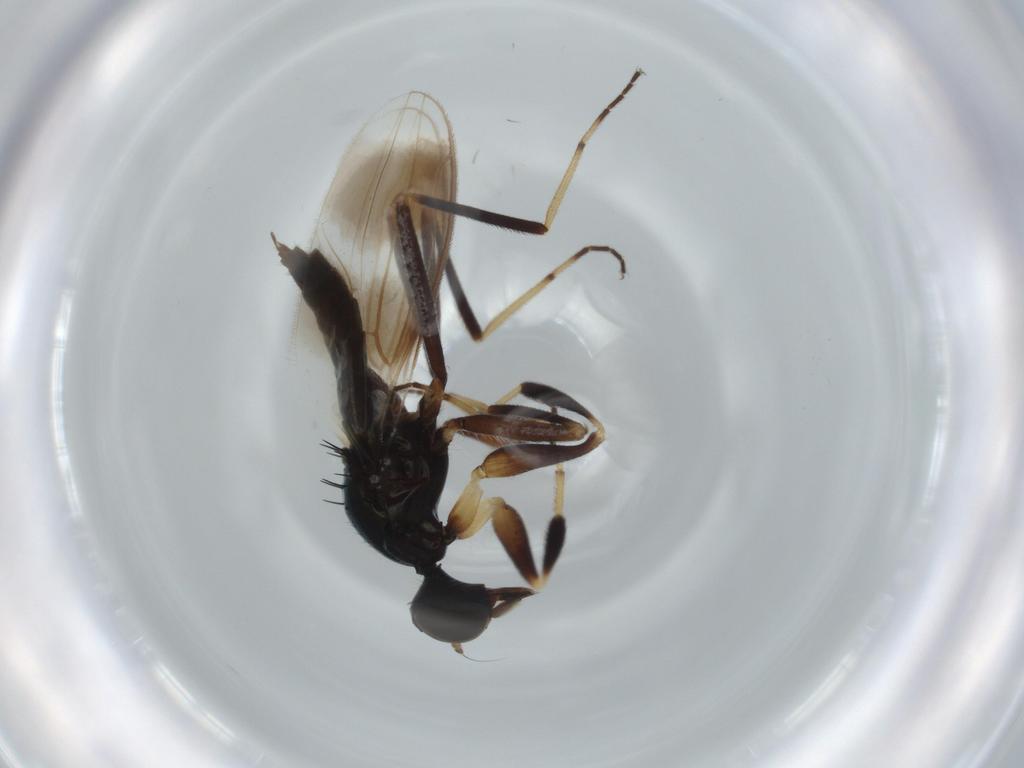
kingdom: Animalia
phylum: Arthropoda
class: Insecta
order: Diptera
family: Hybotidae
